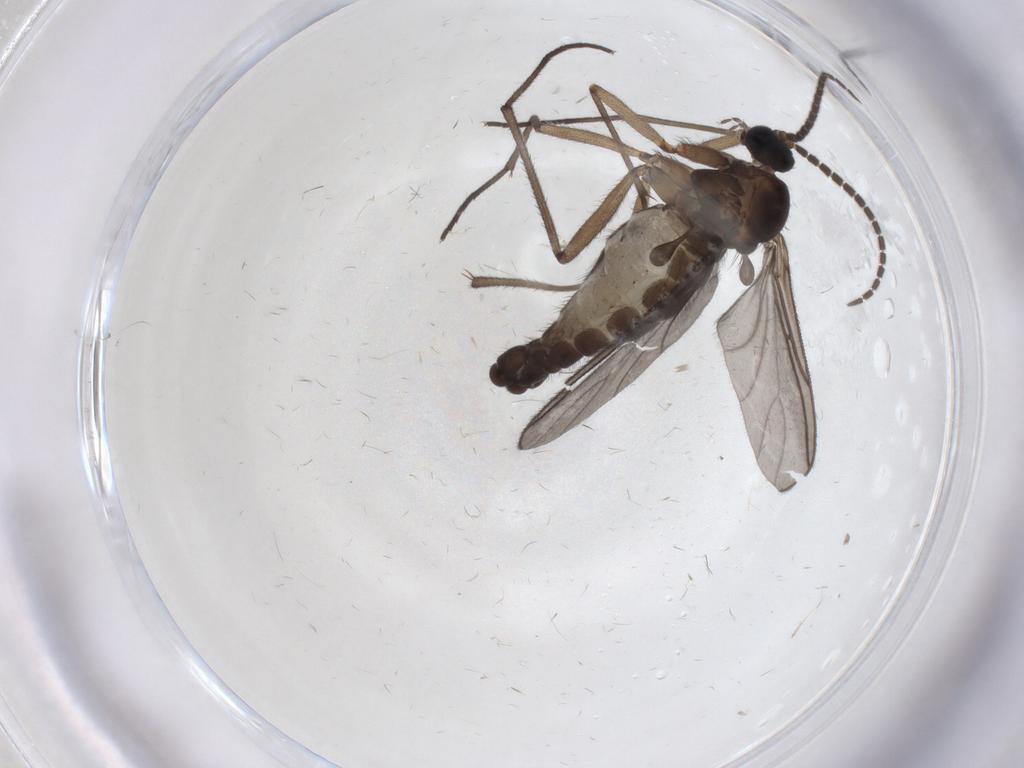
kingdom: Animalia
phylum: Arthropoda
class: Insecta
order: Diptera
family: Sciaridae
